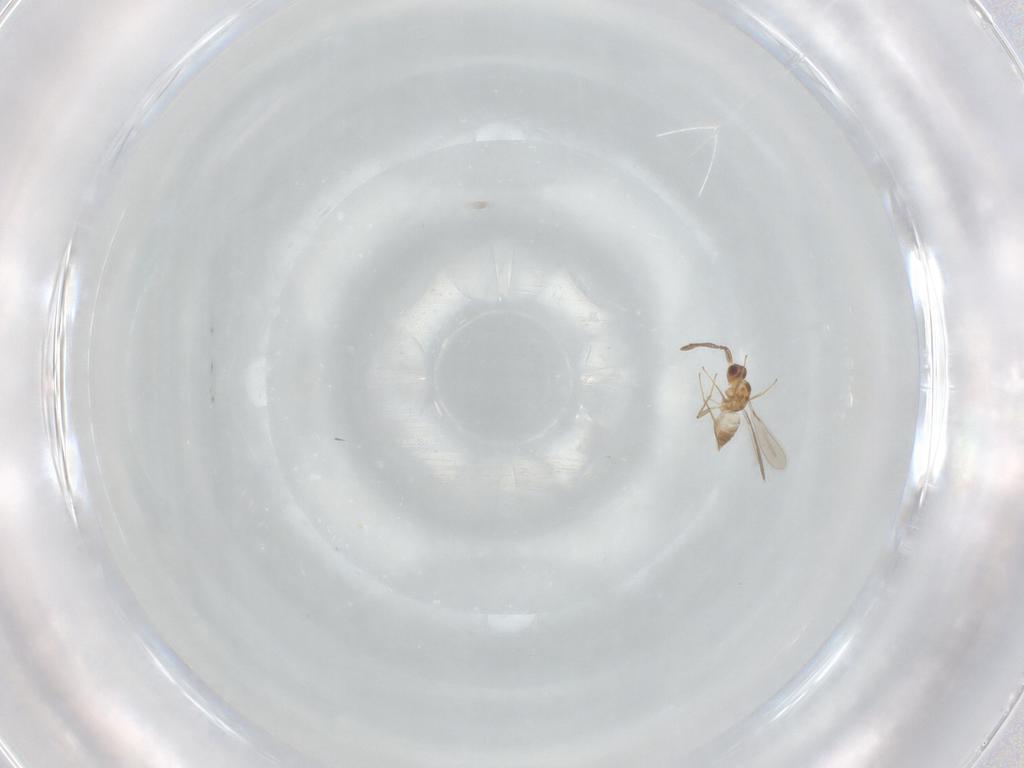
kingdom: Animalia
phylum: Arthropoda
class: Insecta
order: Hymenoptera
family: Mymaridae
